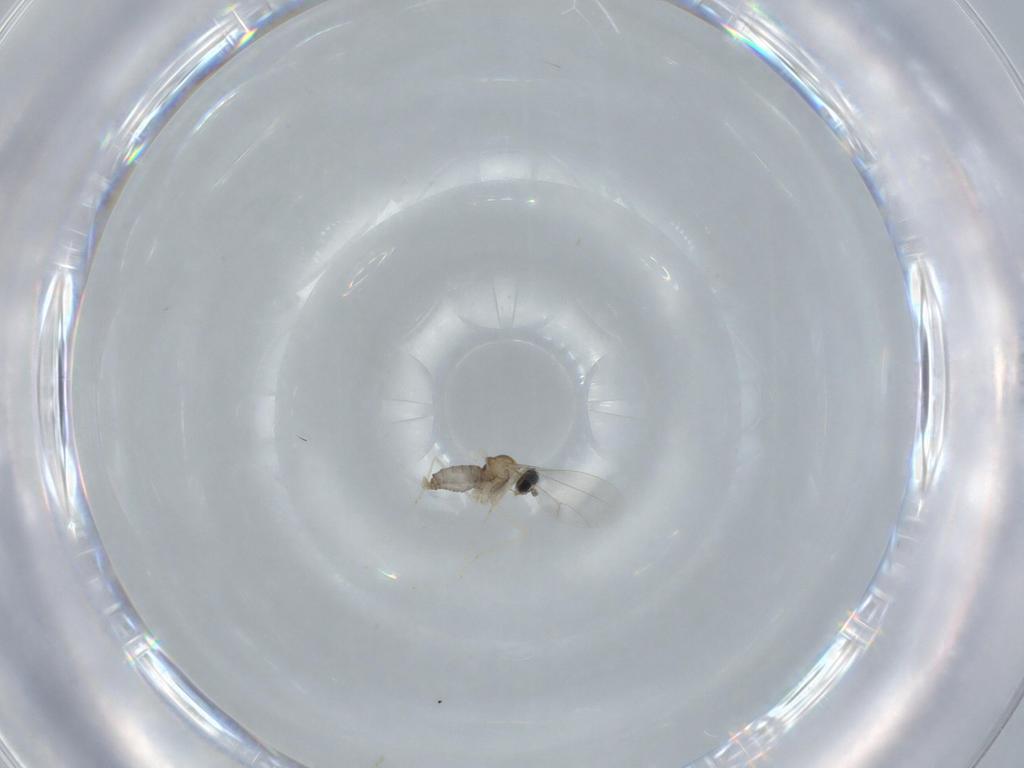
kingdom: Animalia
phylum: Arthropoda
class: Insecta
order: Diptera
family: Cecidomyiidae
